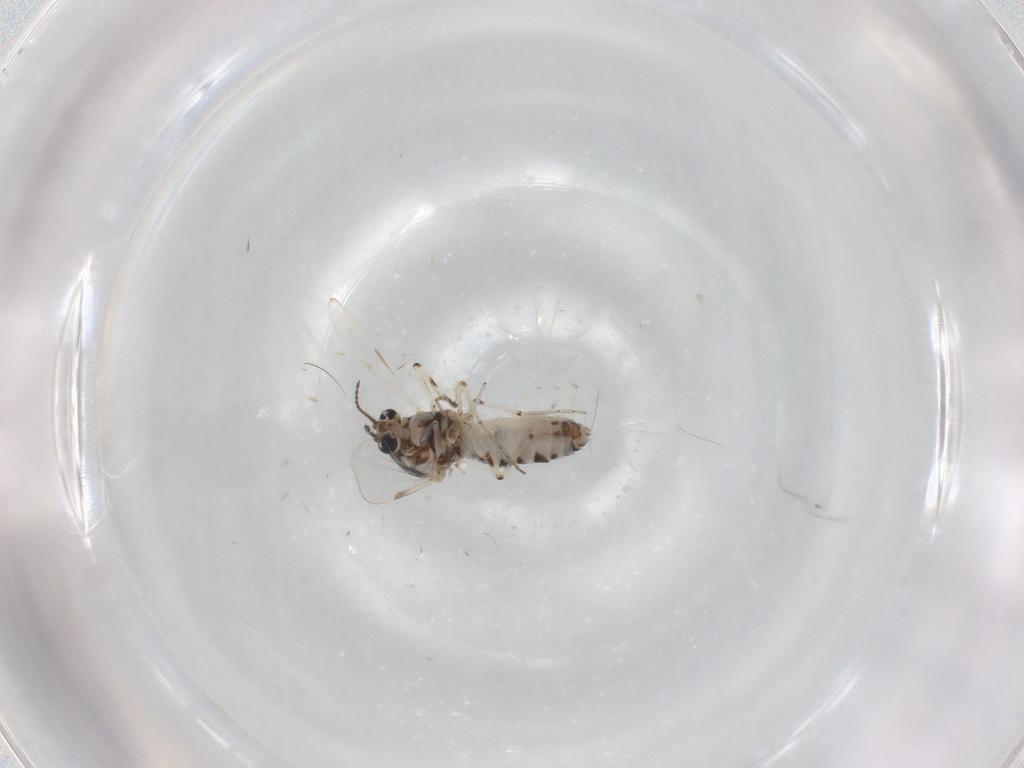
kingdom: Animalia
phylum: Arthropoda
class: Insecta
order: Diptera
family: Ceratopogonidae
